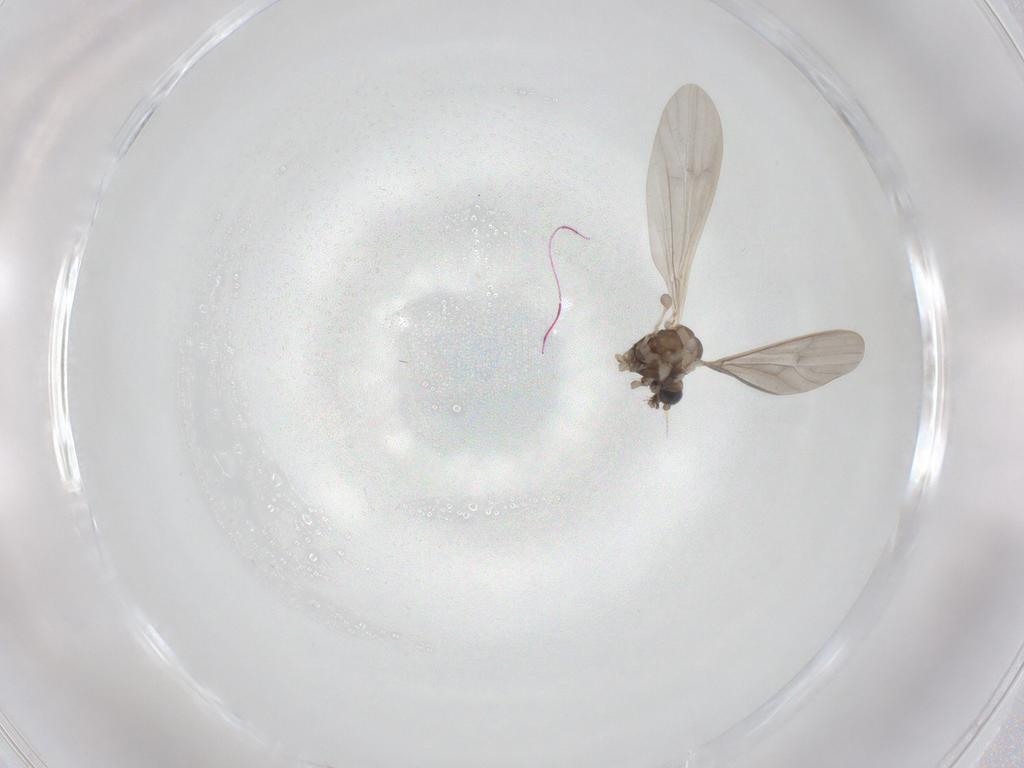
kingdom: Animalia
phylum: Arthropoda
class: Insecta
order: Diptera
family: Limoniidae
